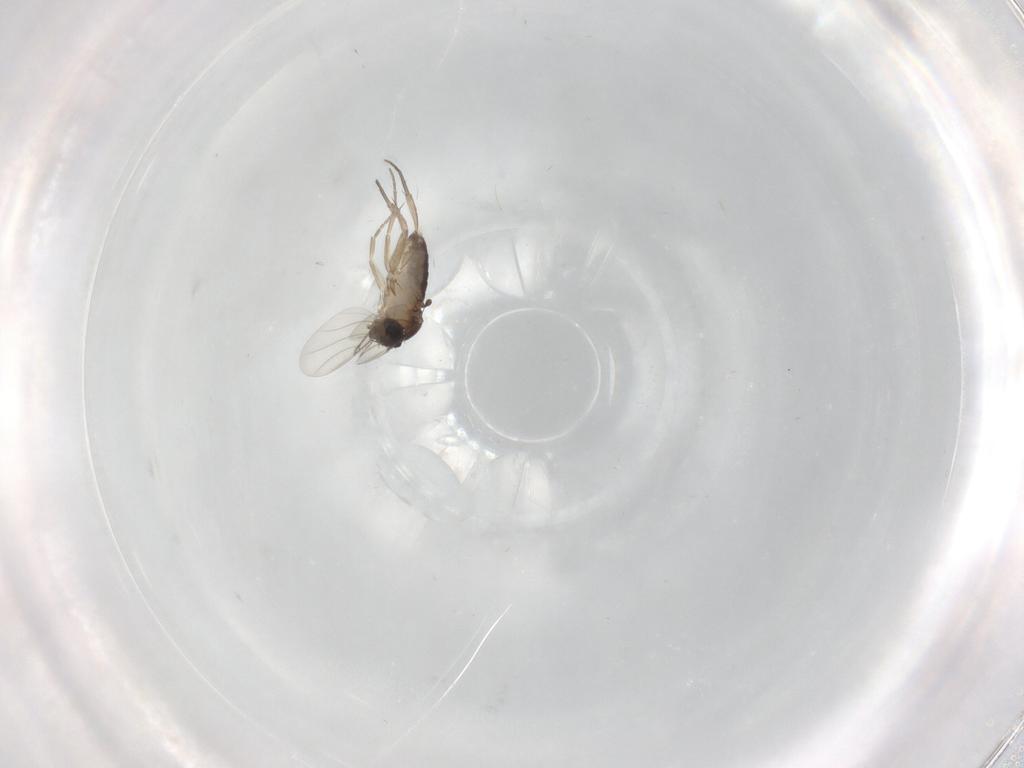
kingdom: Animalia
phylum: Arthropoda
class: Insecta
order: Diptera
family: Phoridae
